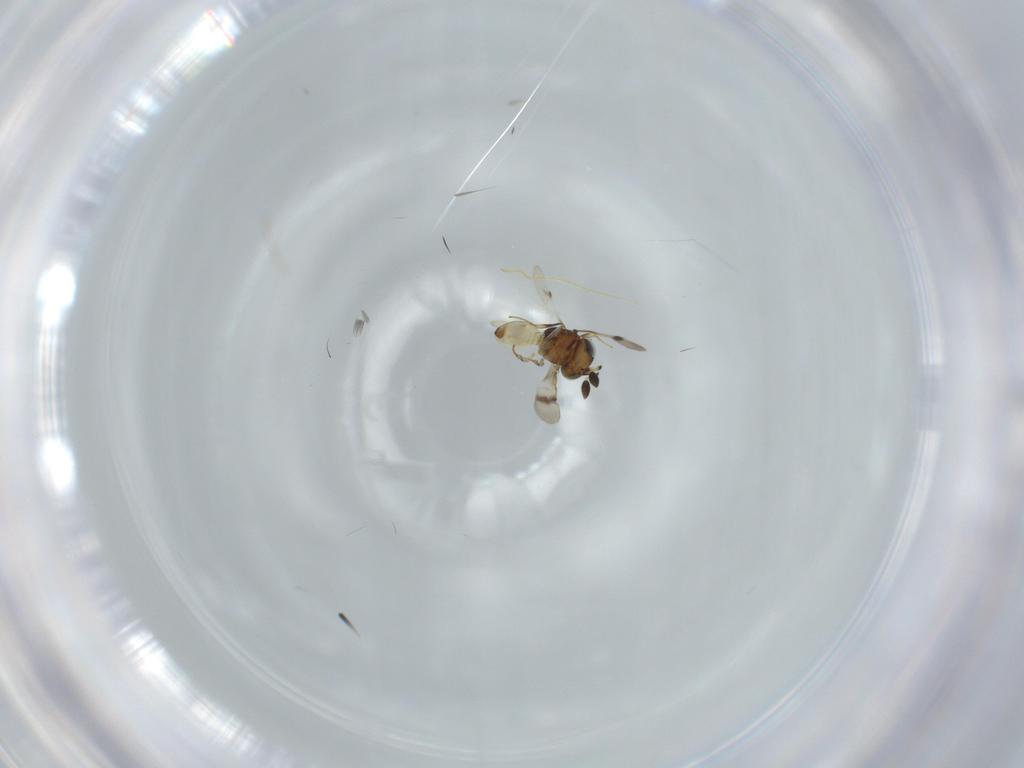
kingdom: Animalia
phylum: Arthropoda
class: Arachnida
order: Araneae
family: Pholcidae
